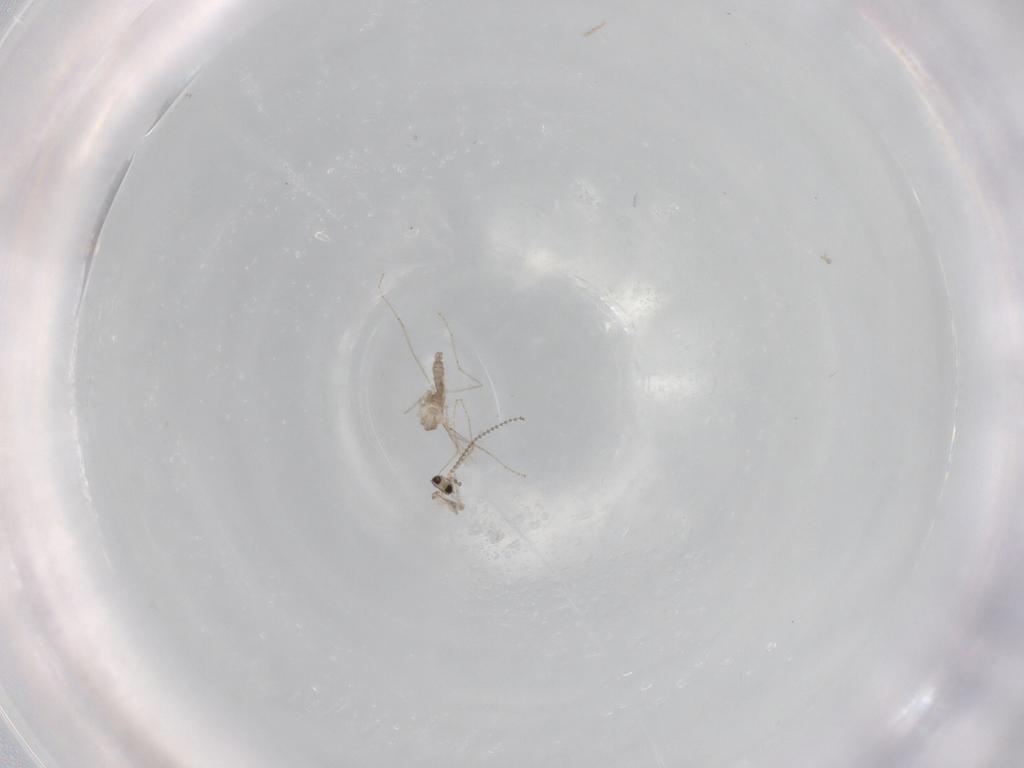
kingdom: Animalia
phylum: Arthropoda
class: Insecta
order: Diptera
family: Cecidomyiidae
